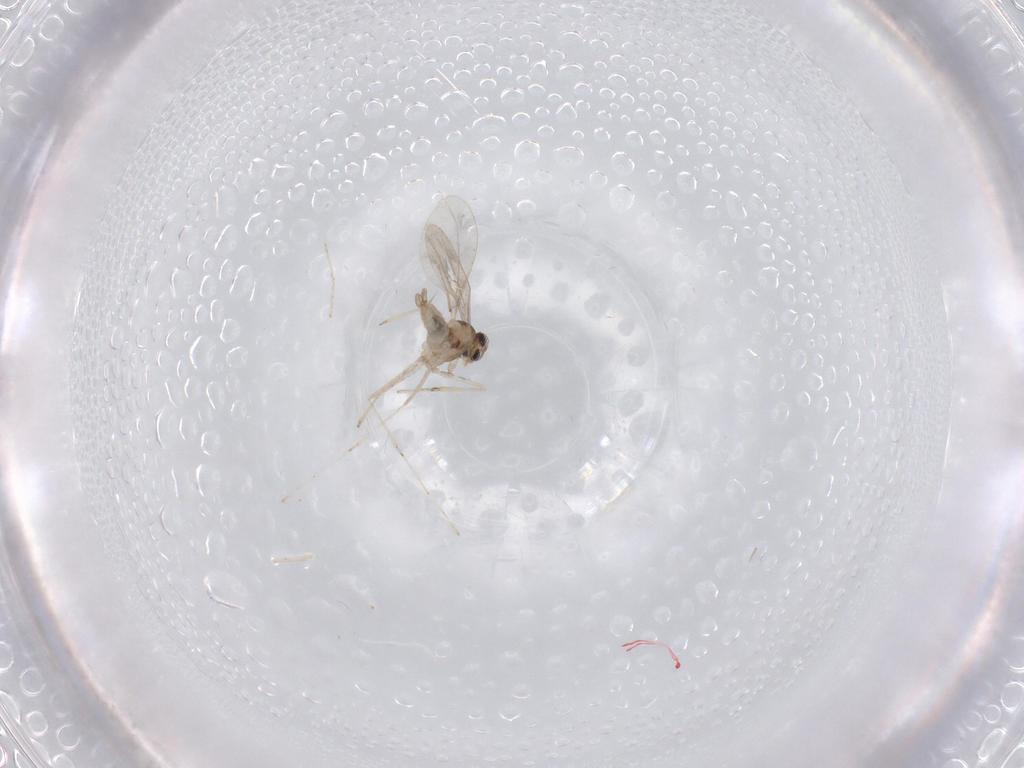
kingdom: Animalia
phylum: Arthropoda
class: Insecta
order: Diptera
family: Cecidomyiidae
